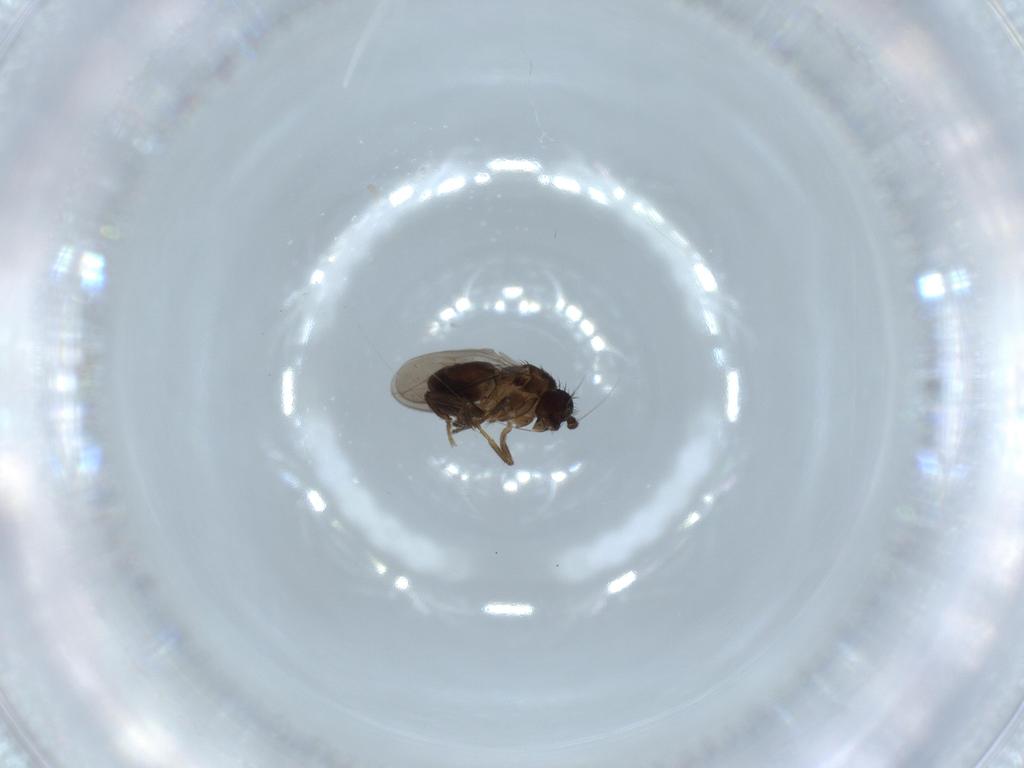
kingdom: Animalia
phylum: Arthropoda
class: Insecta
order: Diptera
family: Sphaeroceridae
